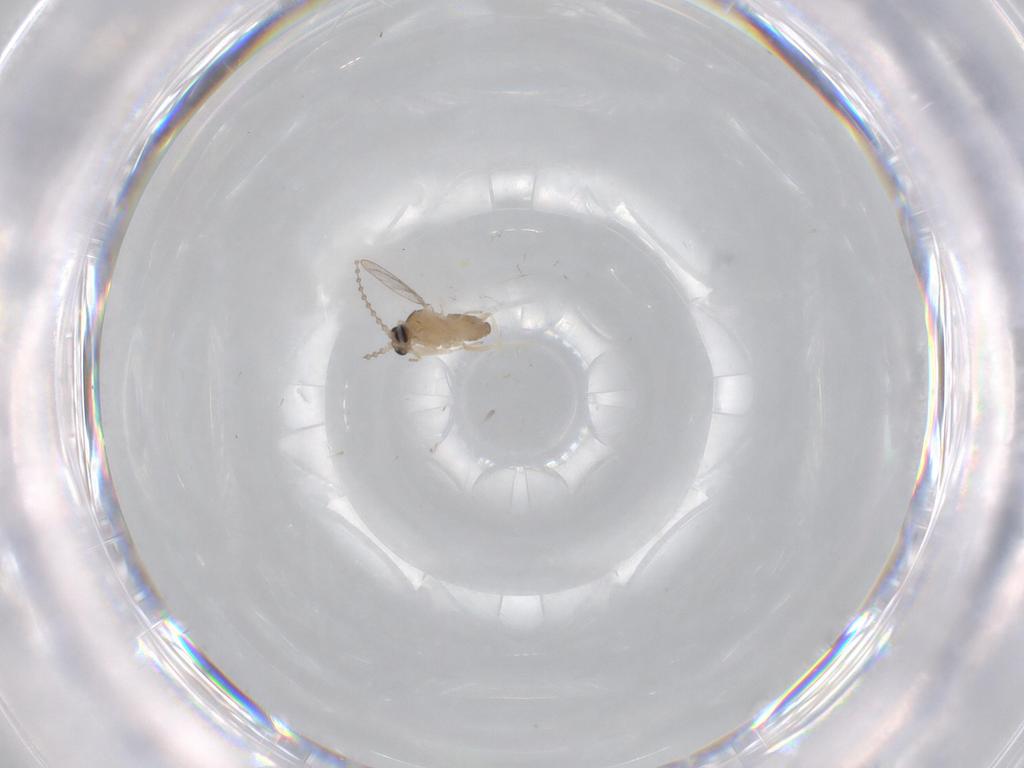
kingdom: Animalia
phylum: Arthropoda
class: Insecta
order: Diptera
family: Cecidomyiidae
